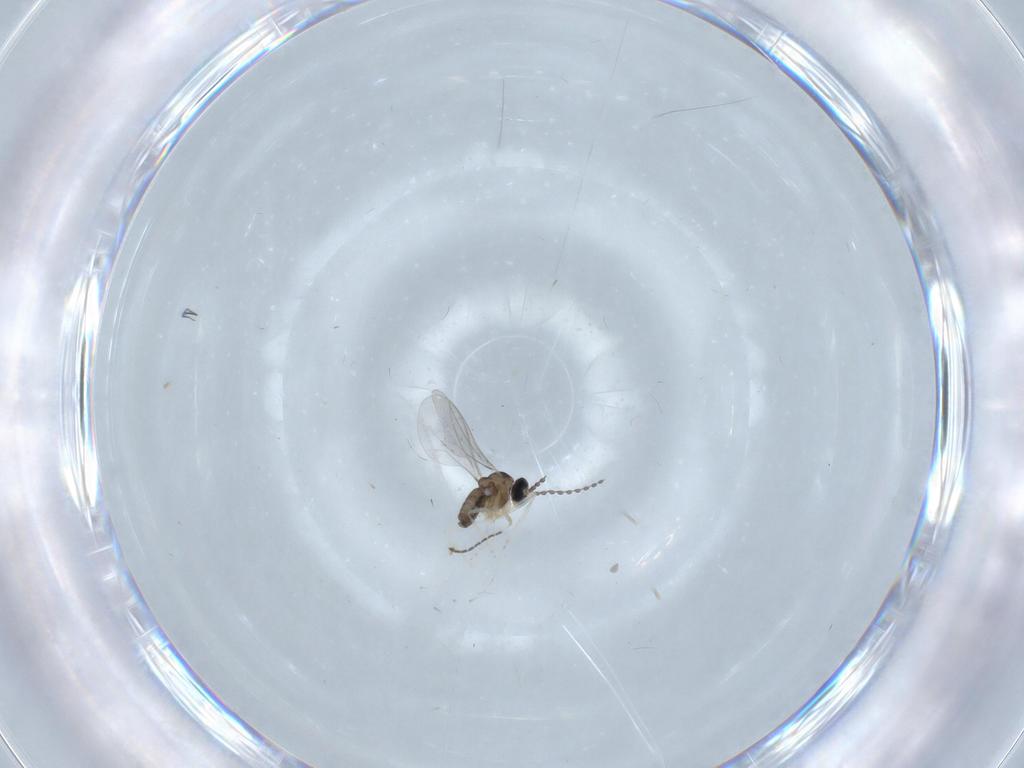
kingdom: Animalia
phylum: Arthropoda
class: Insecta
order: Diptera
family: Cecidomyiidae
